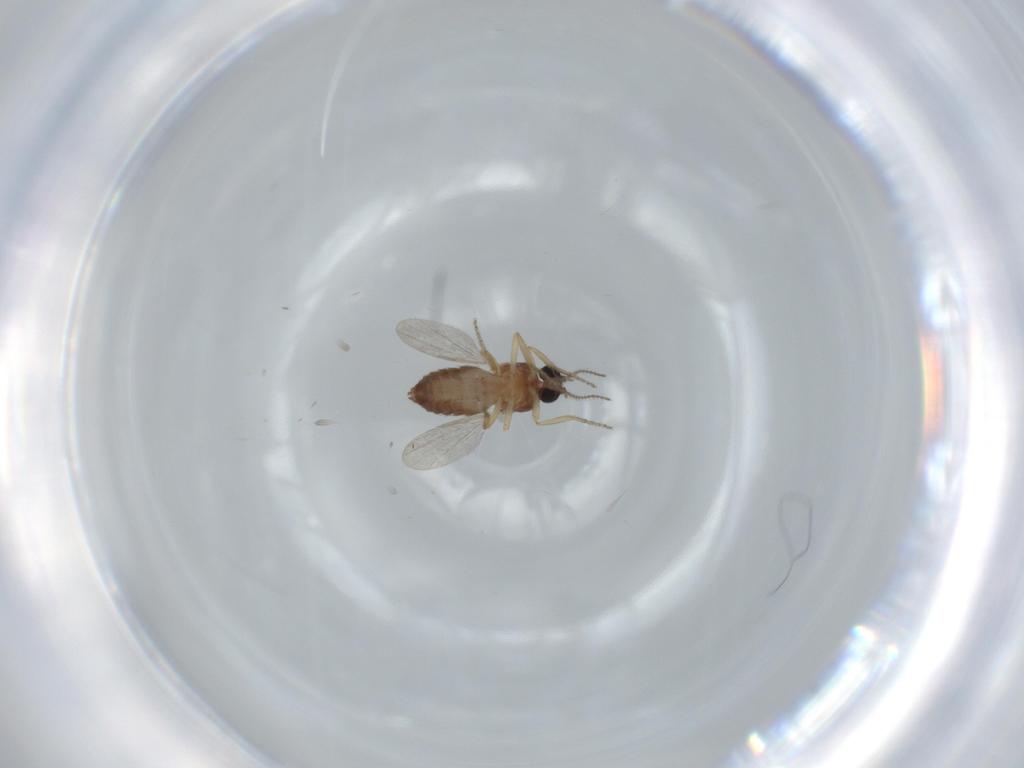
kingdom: Animalia
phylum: Arthropoda
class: Insecta
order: Diptera
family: Ceratopogonidae
